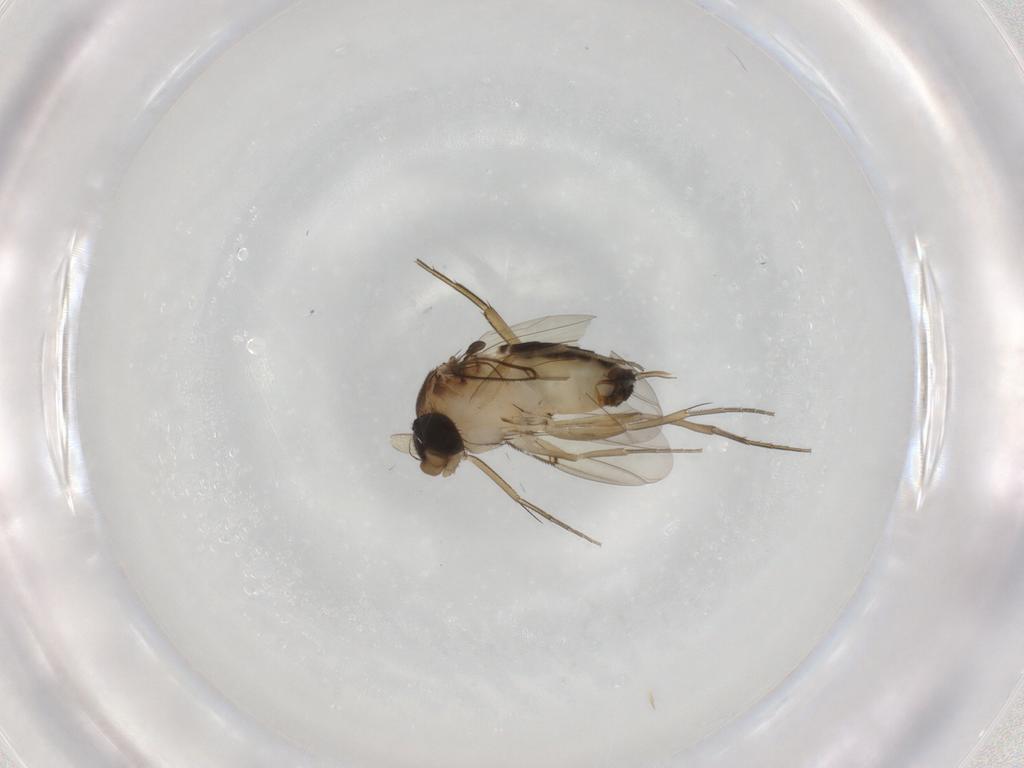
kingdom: Animalia
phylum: Arthropoda
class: Insecta
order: Diptera
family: Phoridae
